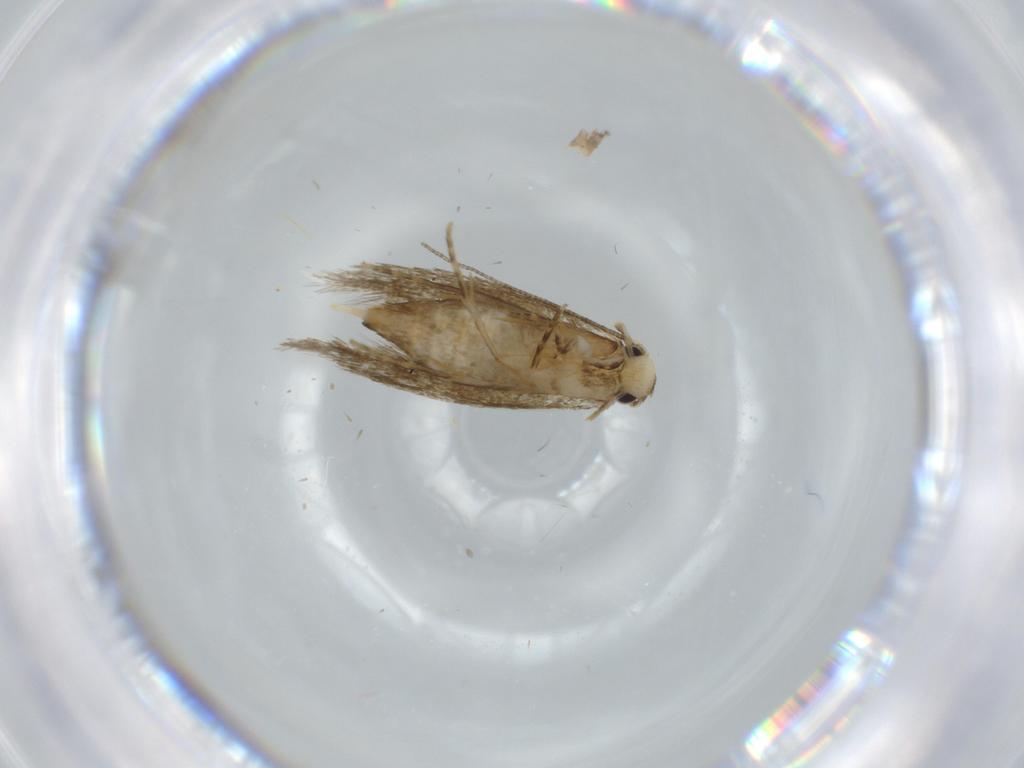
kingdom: Animalia
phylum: Arthropoda
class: Insecta
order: Lepidoptera
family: Tineidae
